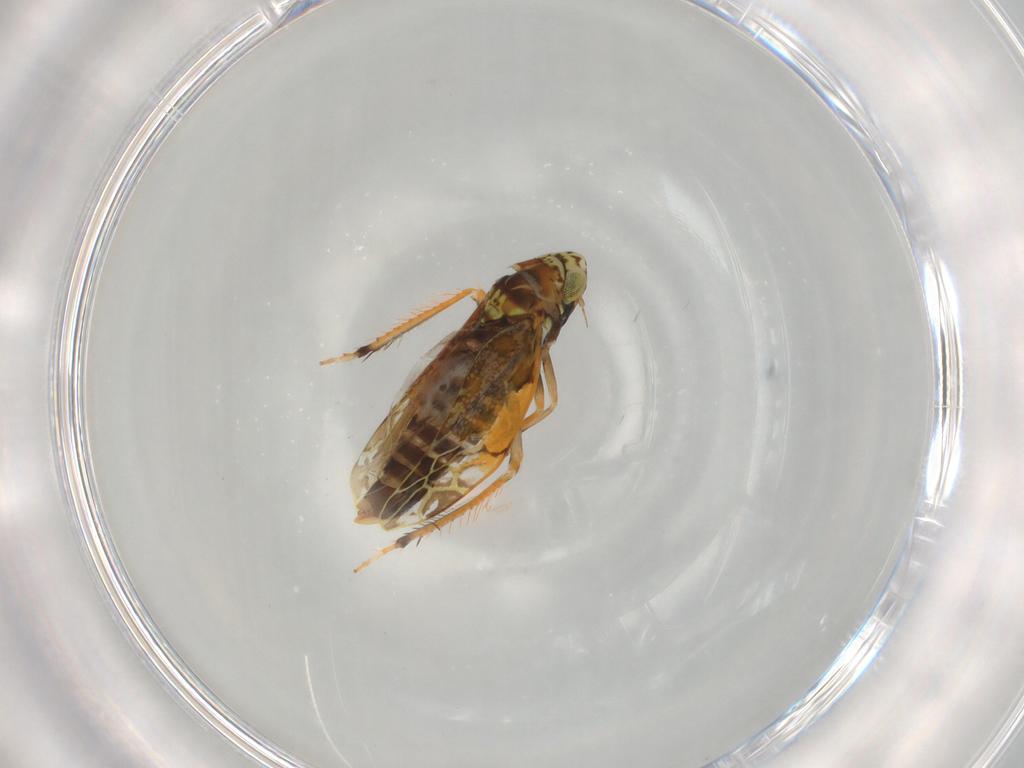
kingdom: Animalia
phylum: Arthropoda
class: Insecta
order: Hemiptera
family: Cicadellidae
